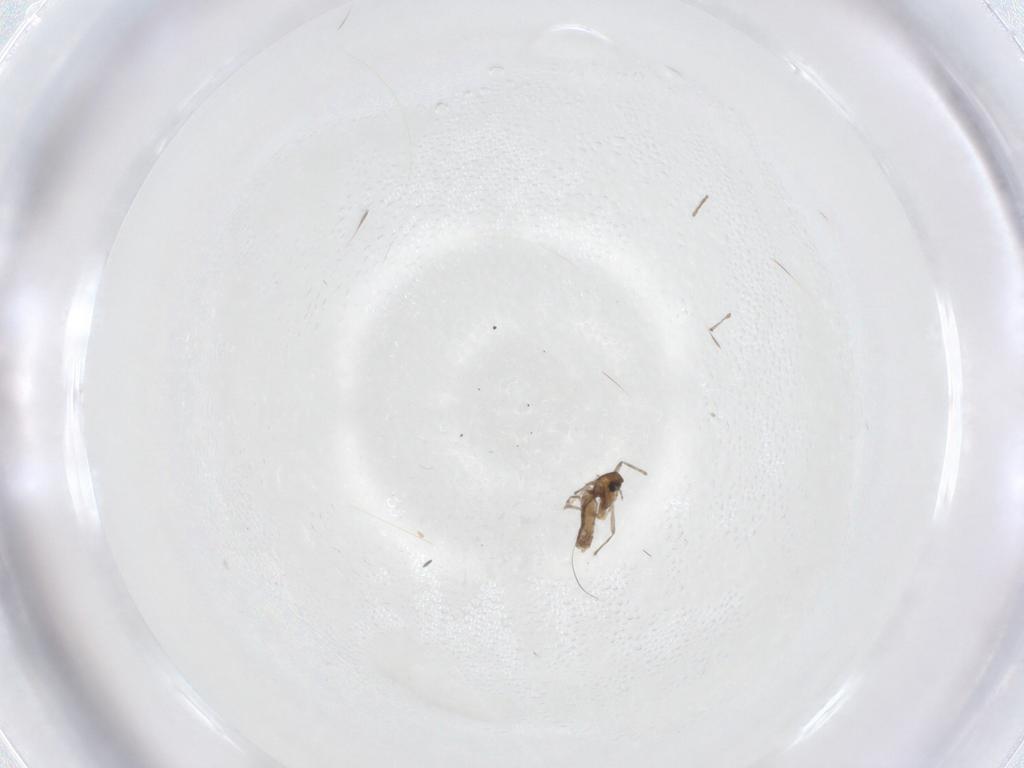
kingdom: Animalia
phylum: Arthropoda
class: Insecta
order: Diptera
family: Chironomidae
